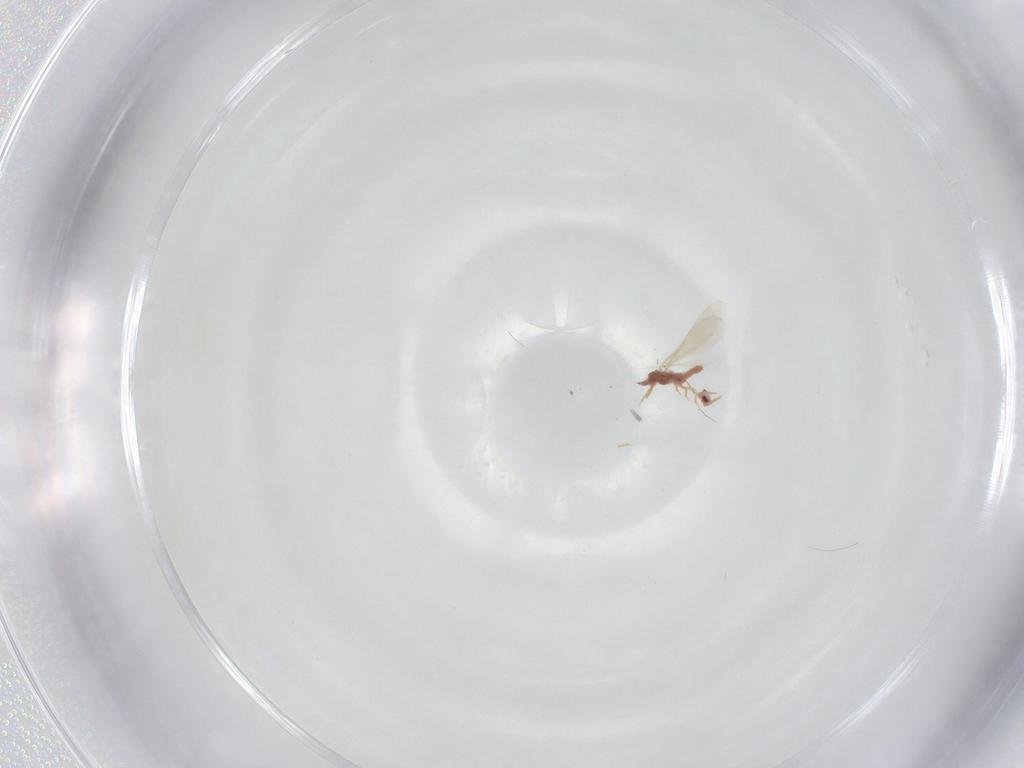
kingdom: Animalia
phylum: Arthropoda
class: Insecta
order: Hemiptera
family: Pseudococcidae
